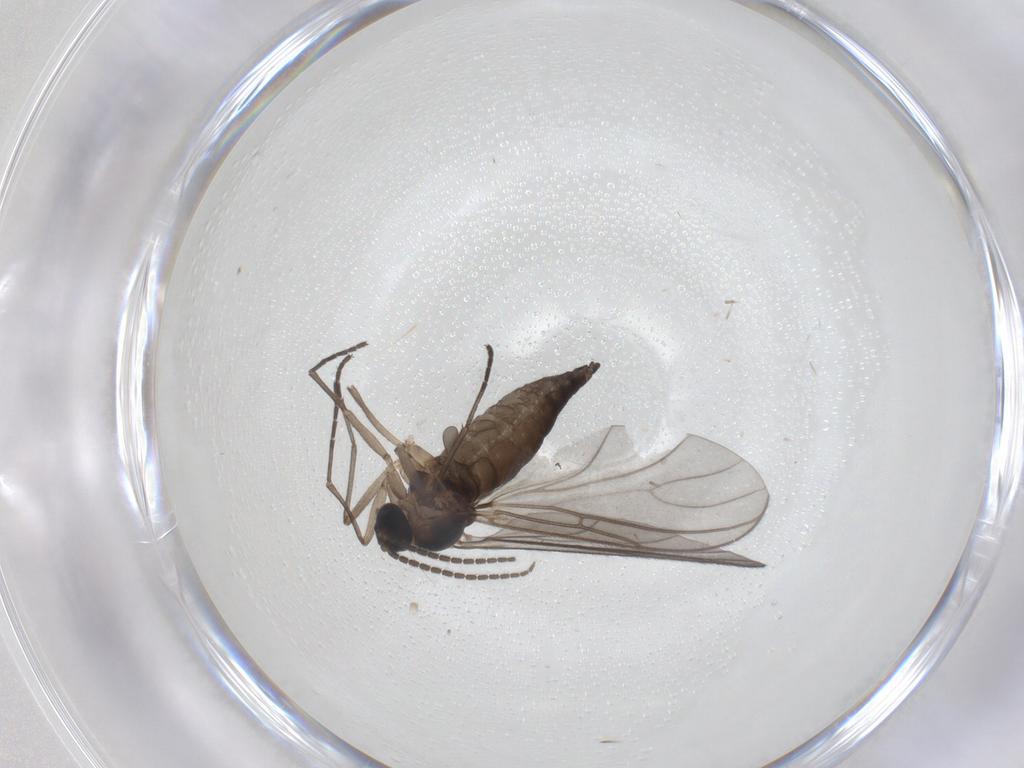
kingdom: Animalia
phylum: Arthropoda
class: Insecta
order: Diptera
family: Sciaridae
